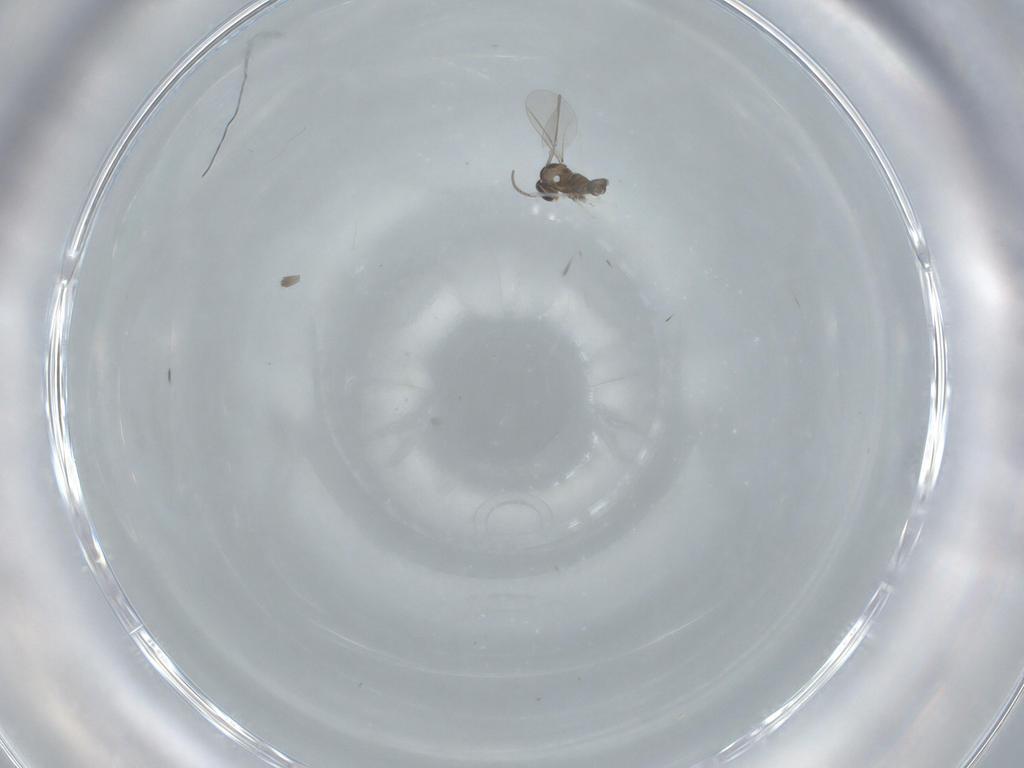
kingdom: Animalia
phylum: Arthropoda
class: Insecta
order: Diptera
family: Cecidomyiidae
